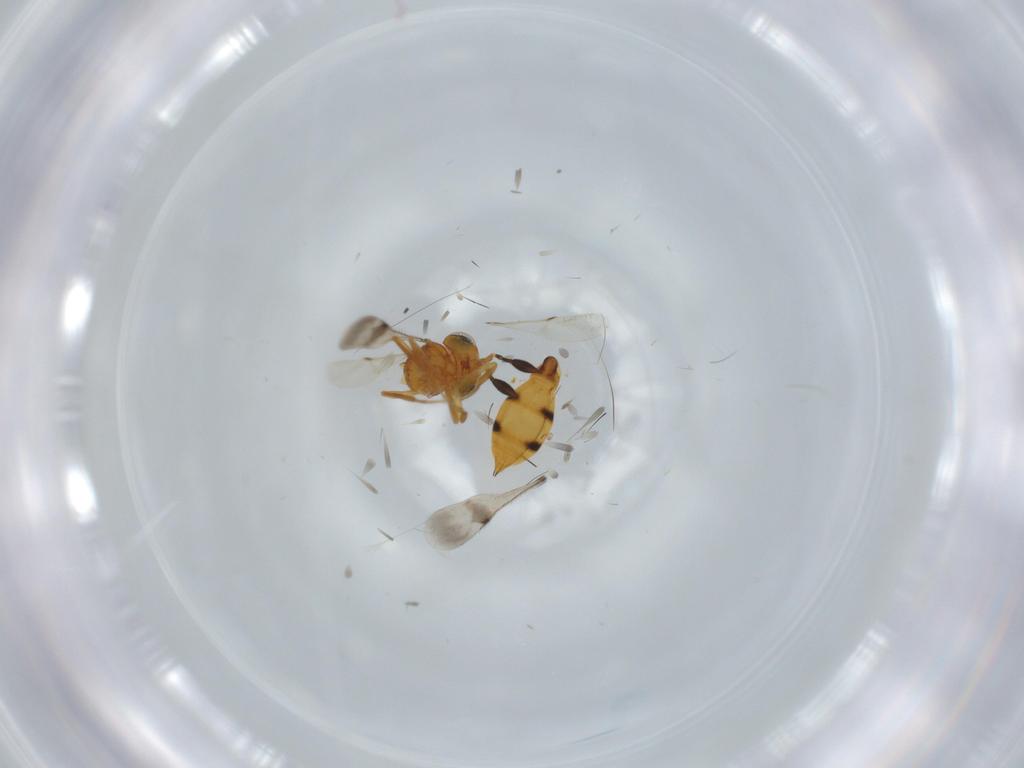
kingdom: Animalia
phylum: Arthropoda
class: Insecta
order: Hymenoptera
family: Scelionidae
